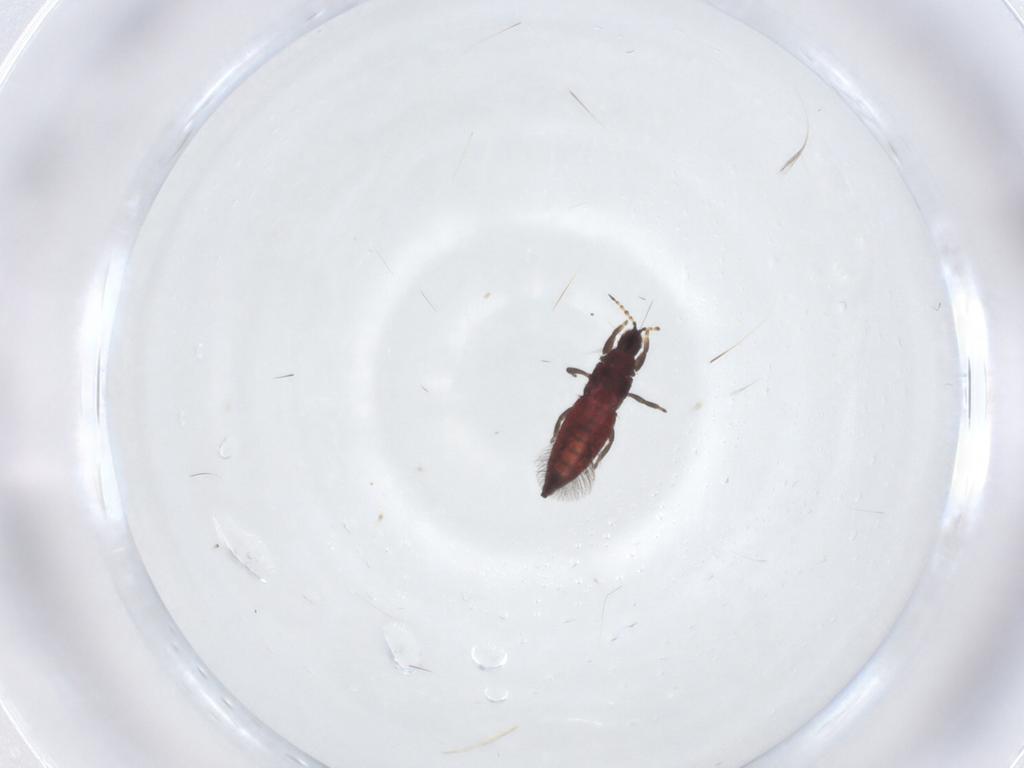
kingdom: Animalia
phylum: Arthropoda
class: Insecta
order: Thysanoptera
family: Phlaeothripidae
